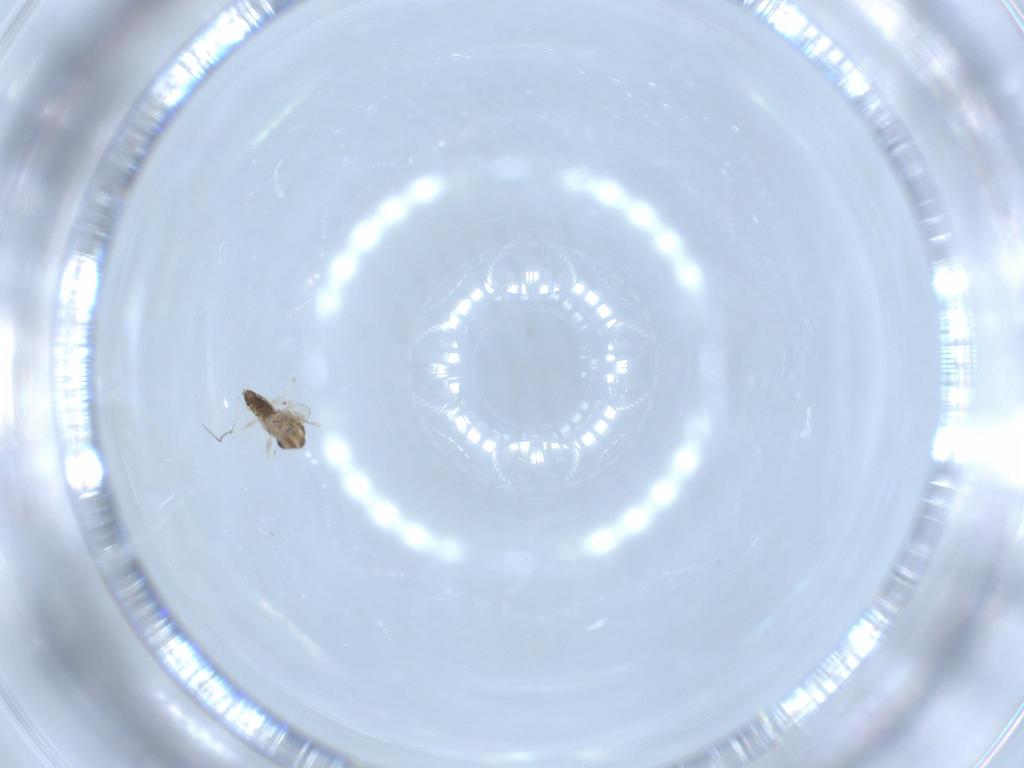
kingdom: Animalia
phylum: Arthropoda
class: Insecta
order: Diptera
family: Chironomidae
